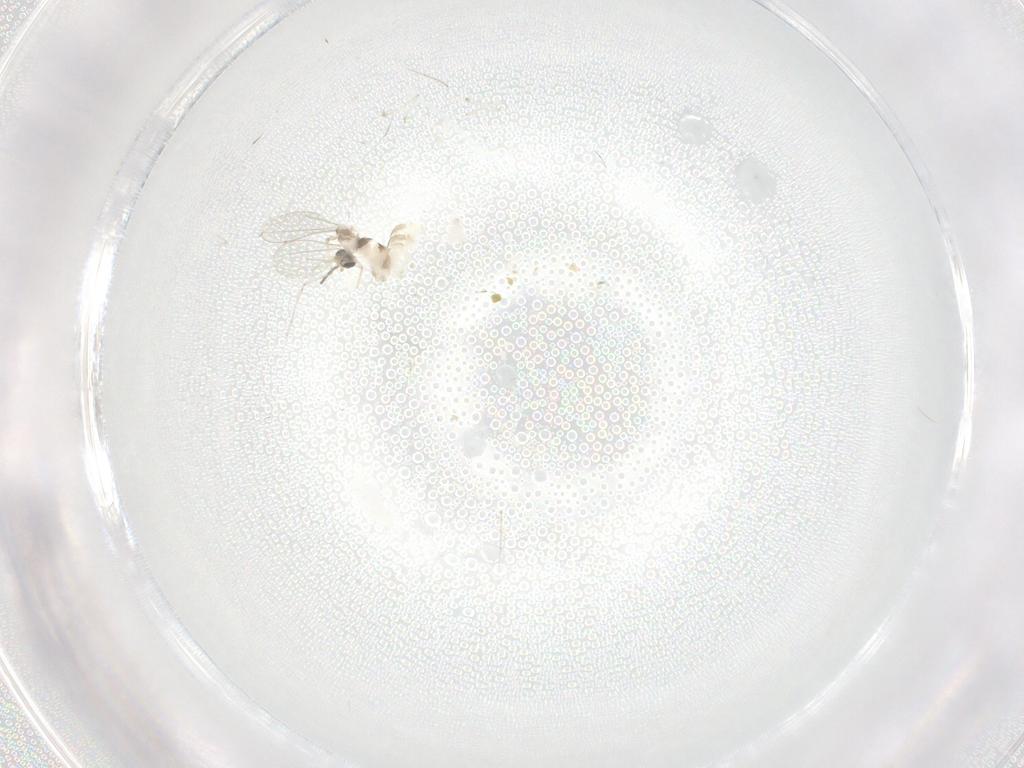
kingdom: Animalia
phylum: Arthropoda
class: Insecta
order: Diptera
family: Cecidomyiidae
